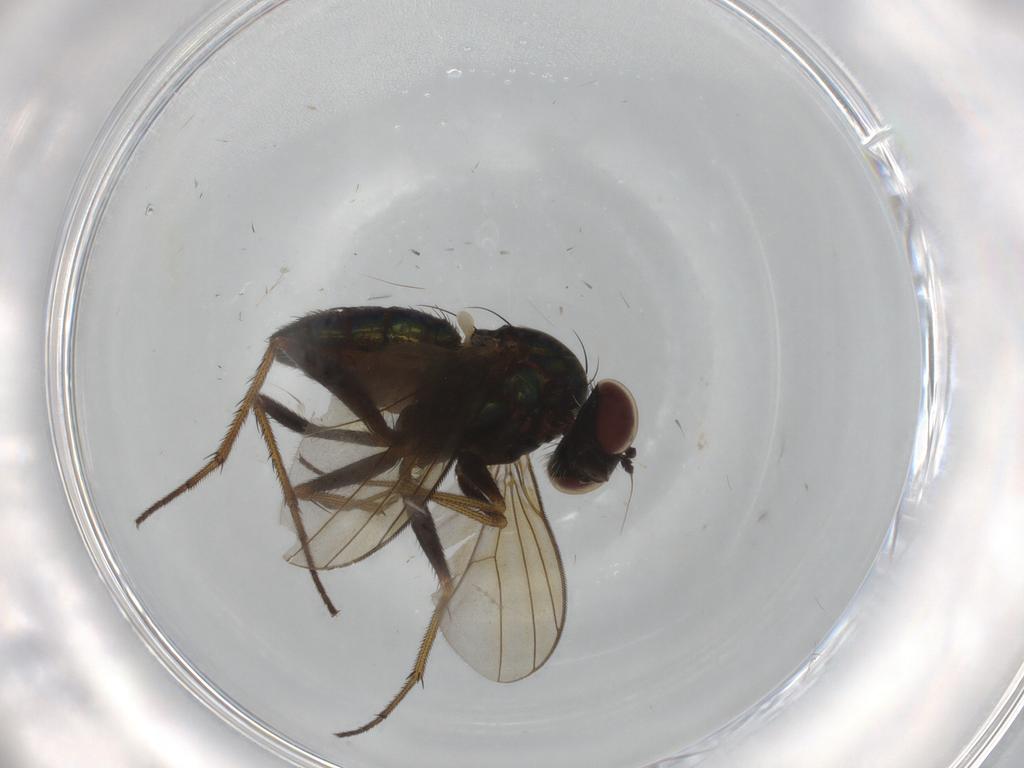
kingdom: Animalia
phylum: Arthropoda
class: Insecta
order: Diptera
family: Dolichopodidae
